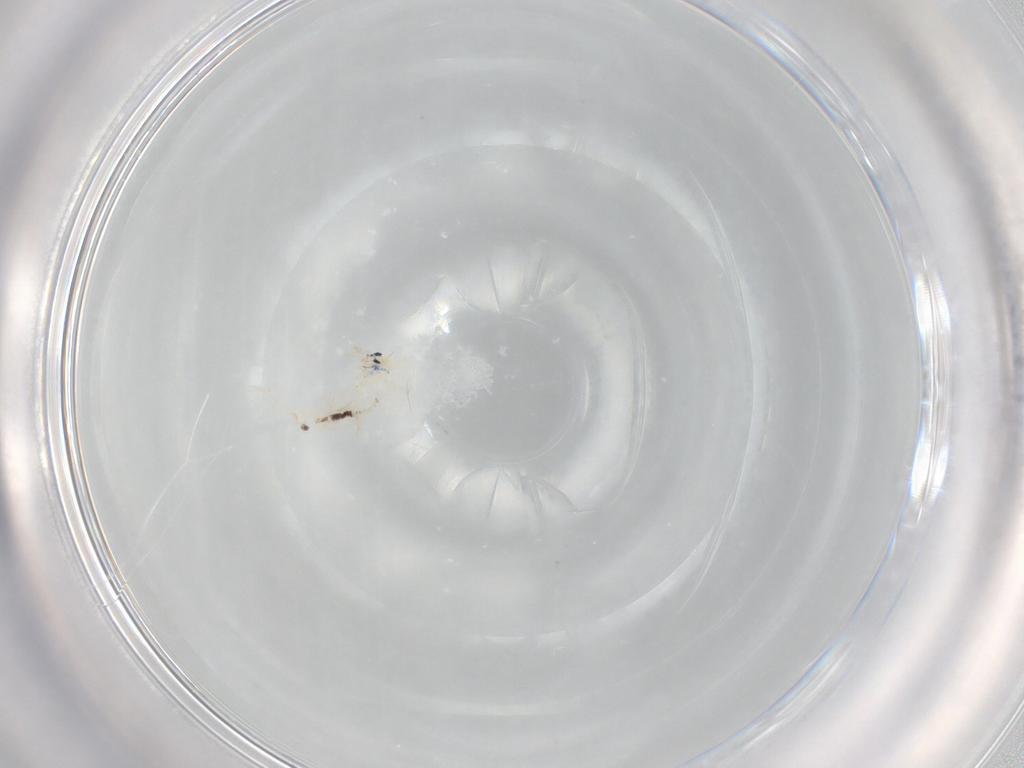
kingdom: Animalia
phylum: Arthropoda
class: Collembola
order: Entomobryomorpha
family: Entomobryidae
